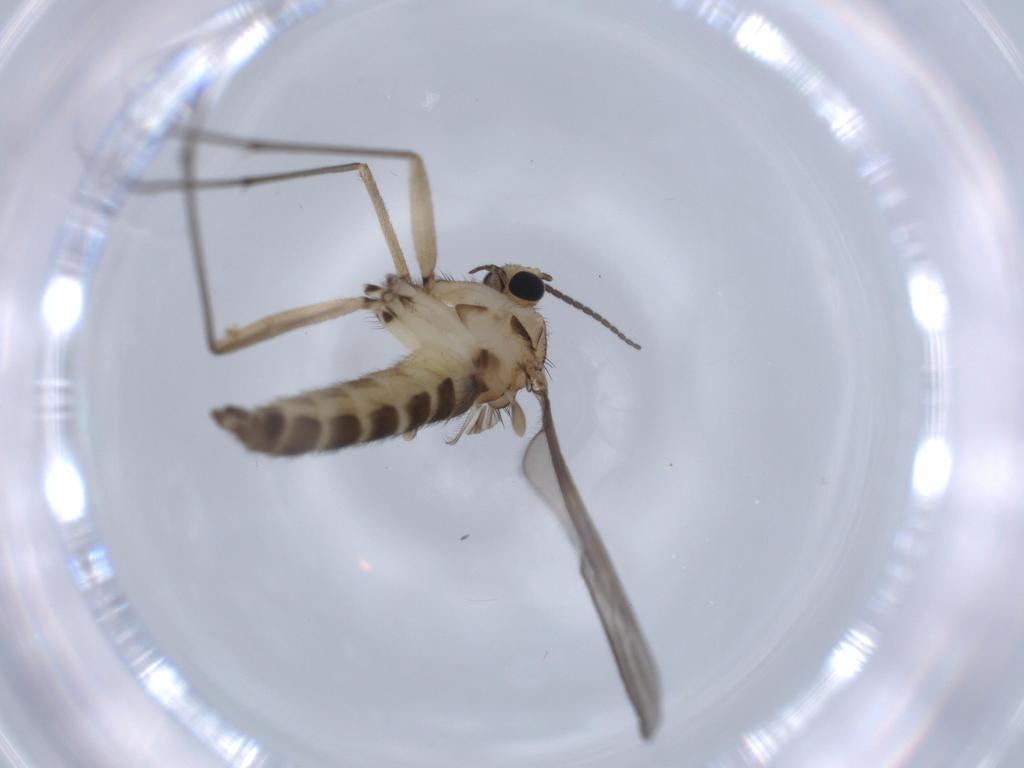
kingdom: Animalia
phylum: Arthropoda
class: Insecta
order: Diptera
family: Sciaridae
